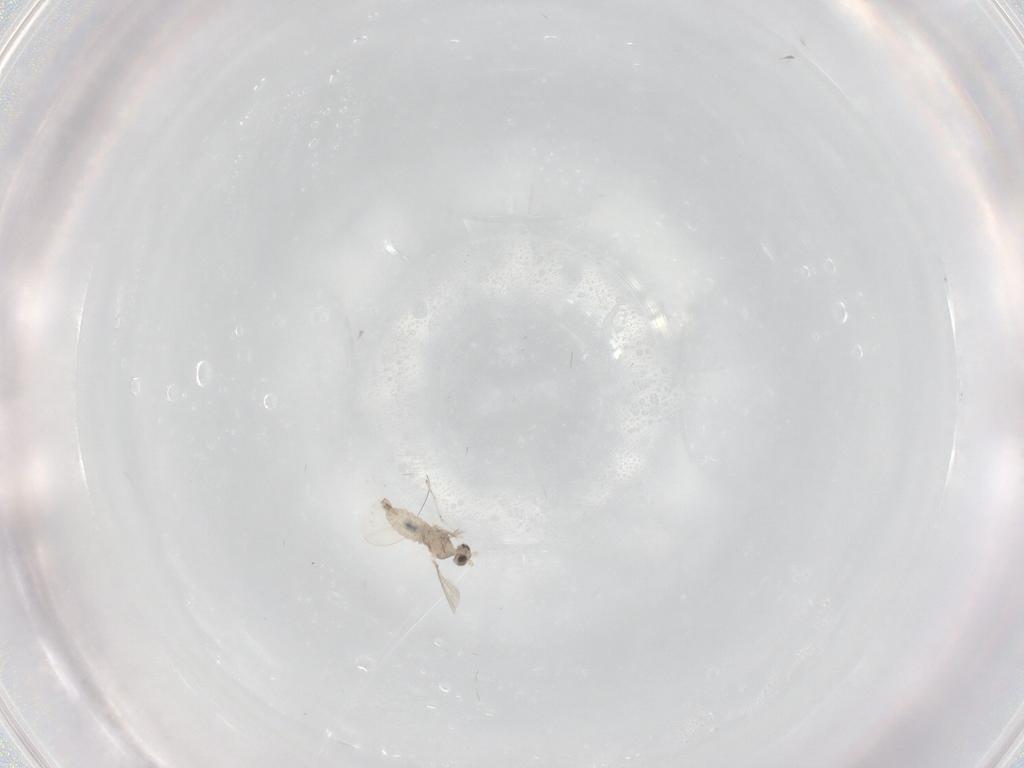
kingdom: Animalia
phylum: Arthropoda
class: Insecta
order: Diptera
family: Cecidomyiidae
